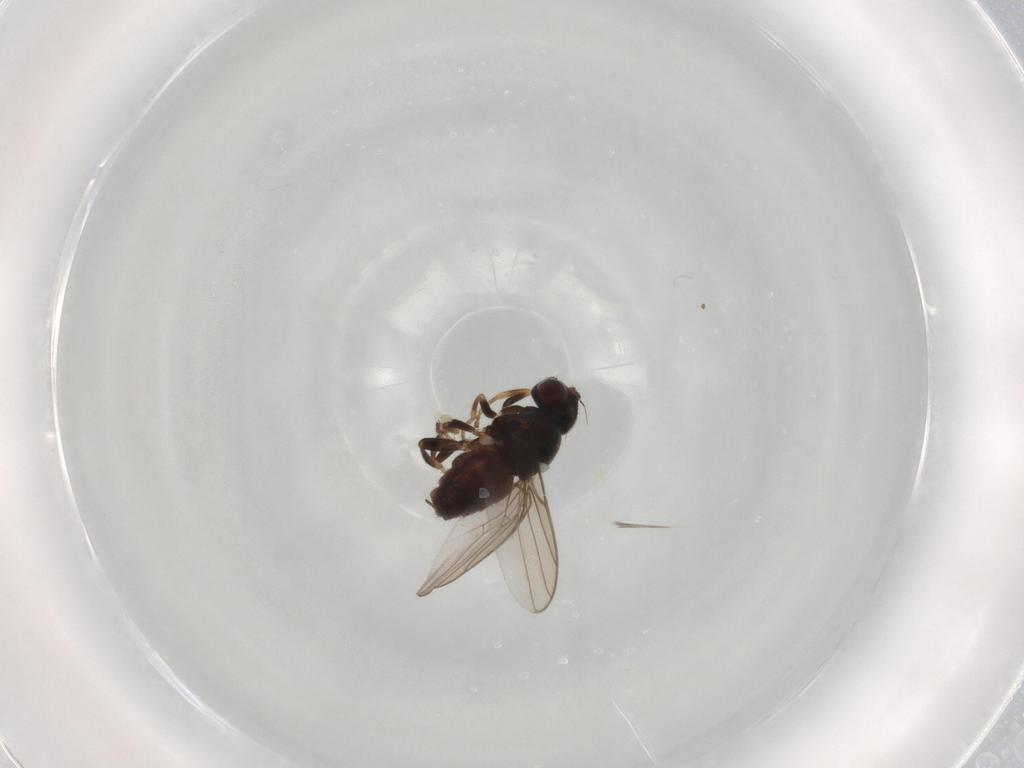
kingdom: Animalia
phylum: Arthropoda
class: Insecta
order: Diptera
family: Chloropidae
